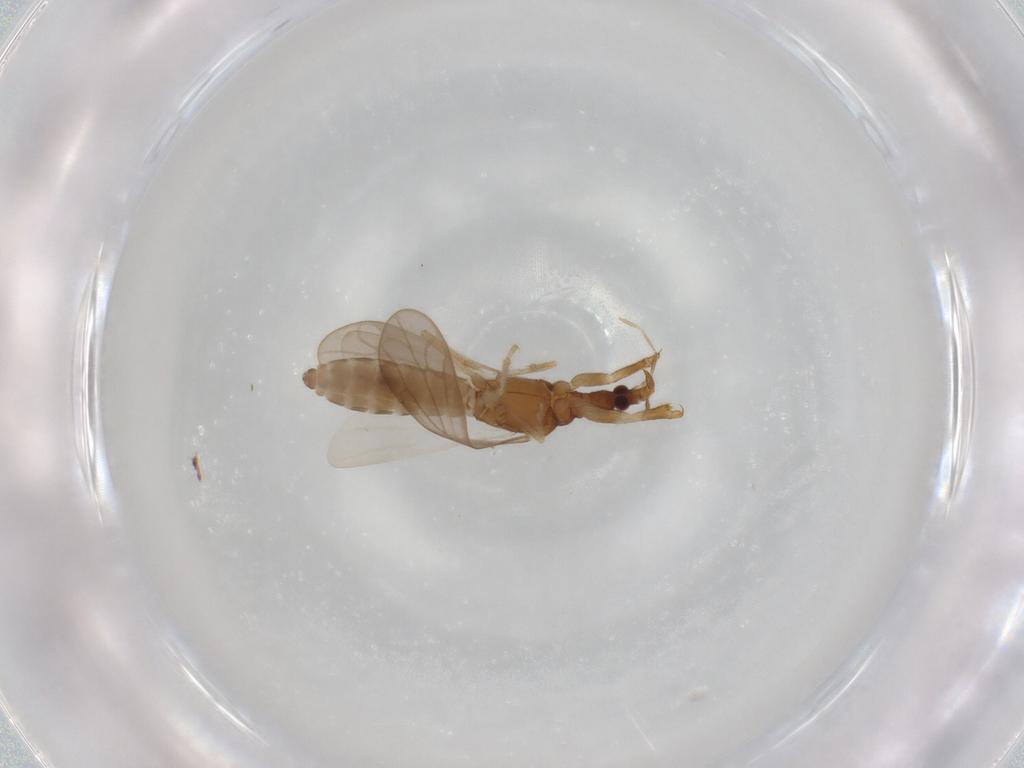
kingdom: Animalia
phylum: Arthropoda
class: Insecta
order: Hemiptera
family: Enicocephalidae
